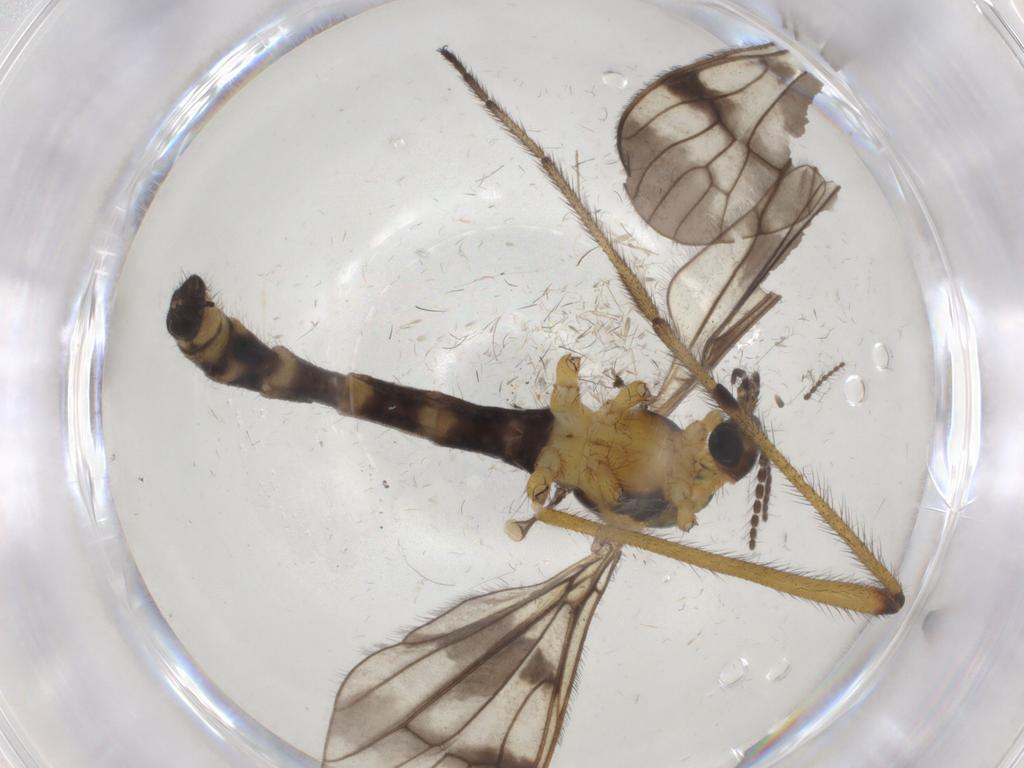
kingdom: Animalia
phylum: Arthropoda
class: Insecta
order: Diptera
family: Limoniidae
